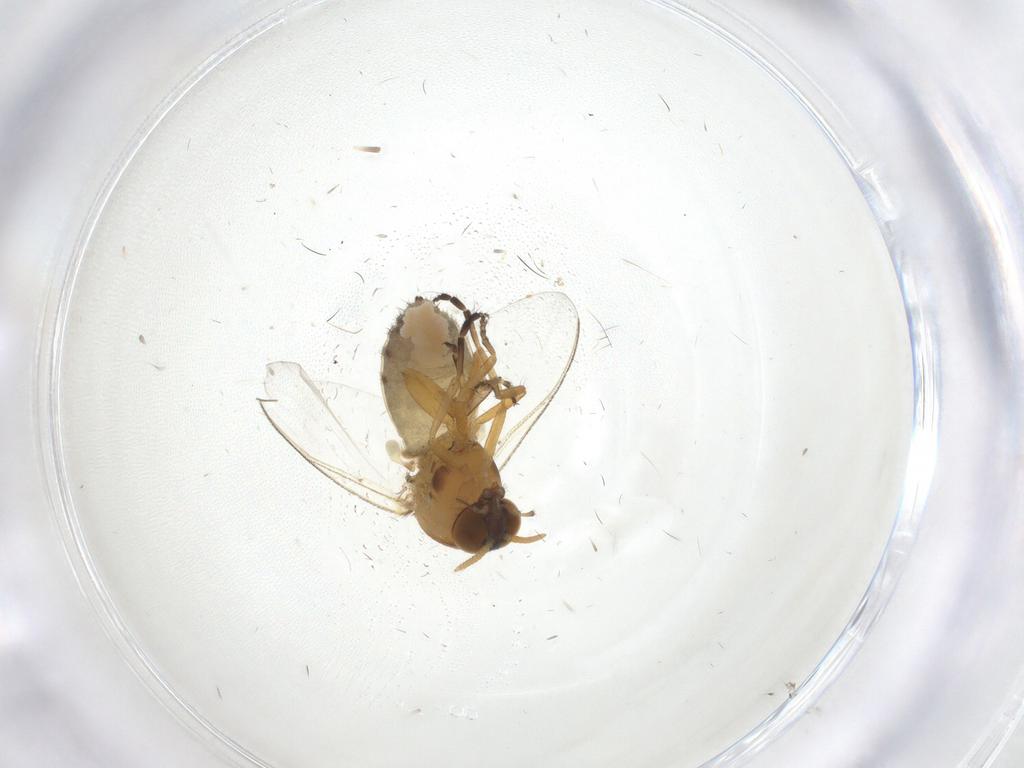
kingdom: Animalia
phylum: Arthropoda
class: Insecta
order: Diptera
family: Simuliidae
